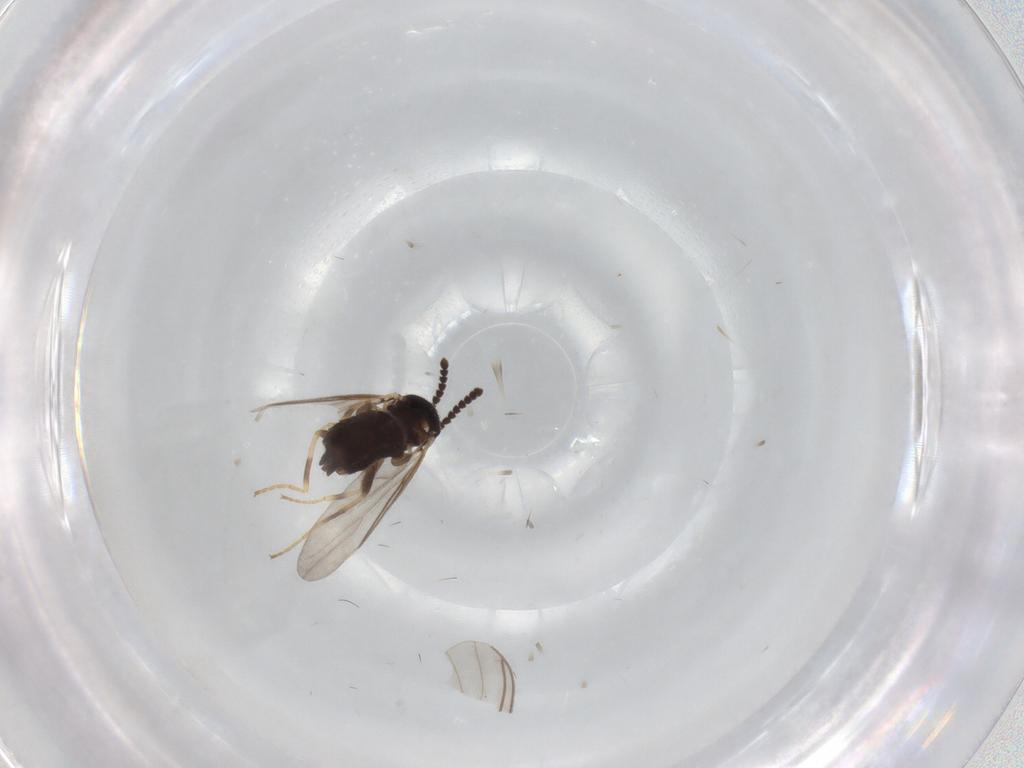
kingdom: Animalia
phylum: Arthropoda
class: Insecta
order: Diptera
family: Scatopsidae
